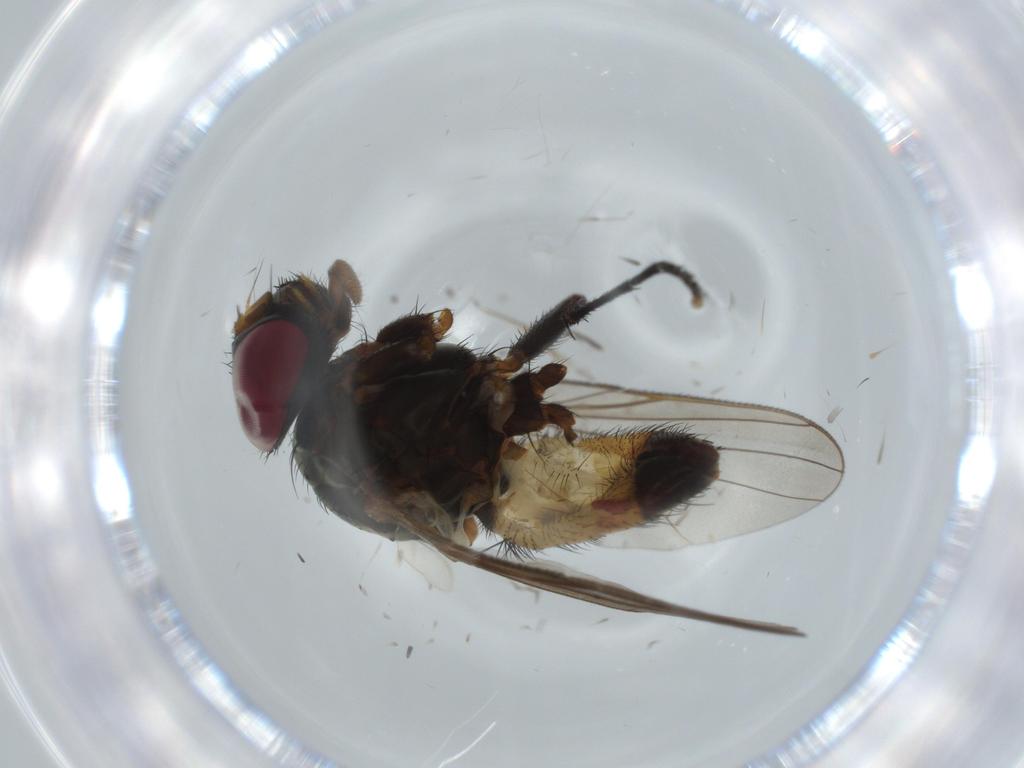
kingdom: Animalia
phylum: Arthropoda
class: Insecta
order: Diptera
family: Fannia
